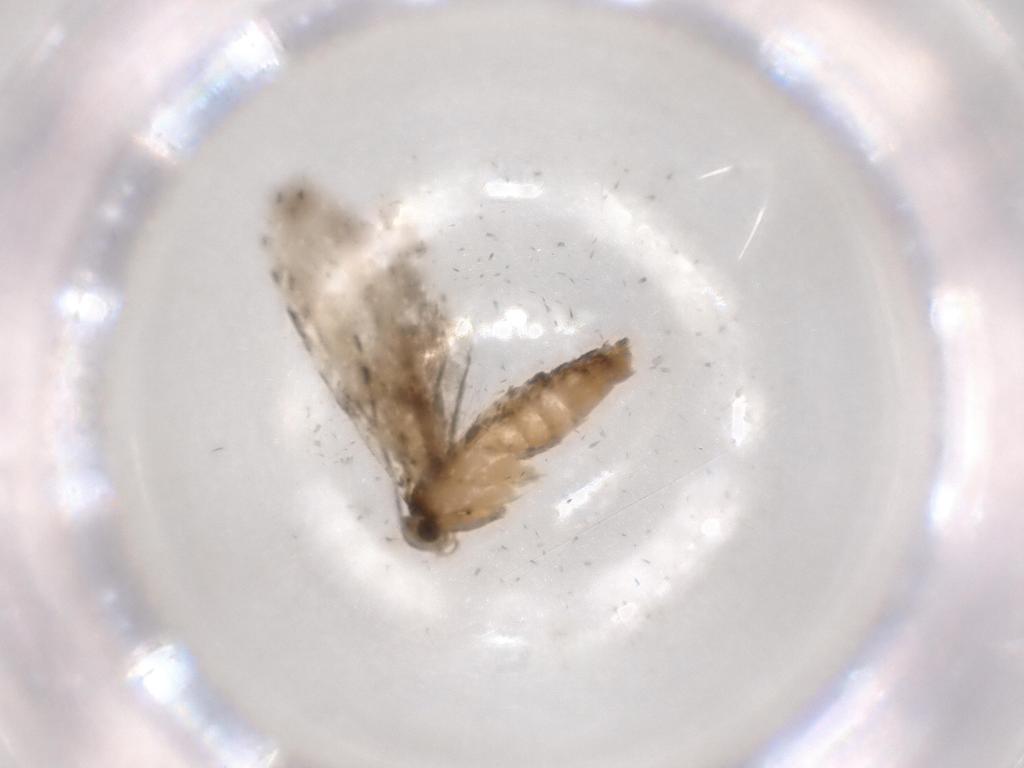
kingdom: Animalia
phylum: Arthropoda
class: Insecta
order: Lepidoptera
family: Tineidae
